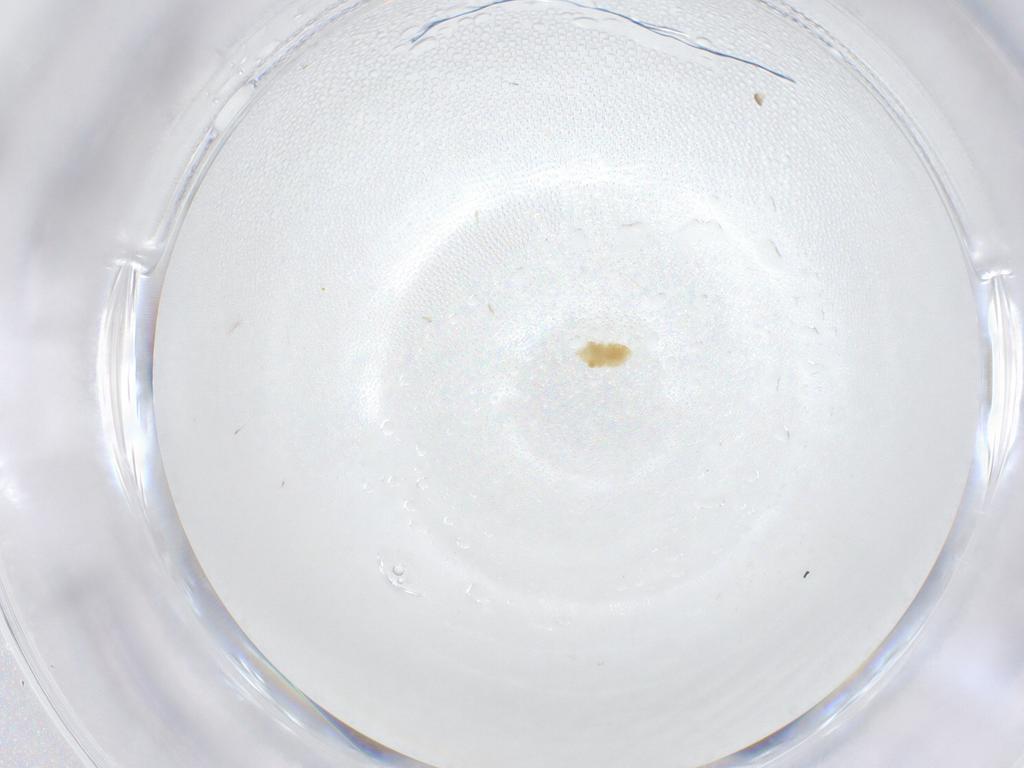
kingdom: Animalia
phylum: Arthropoda
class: Arachnida
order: Trombidiformes
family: Eupodidae
